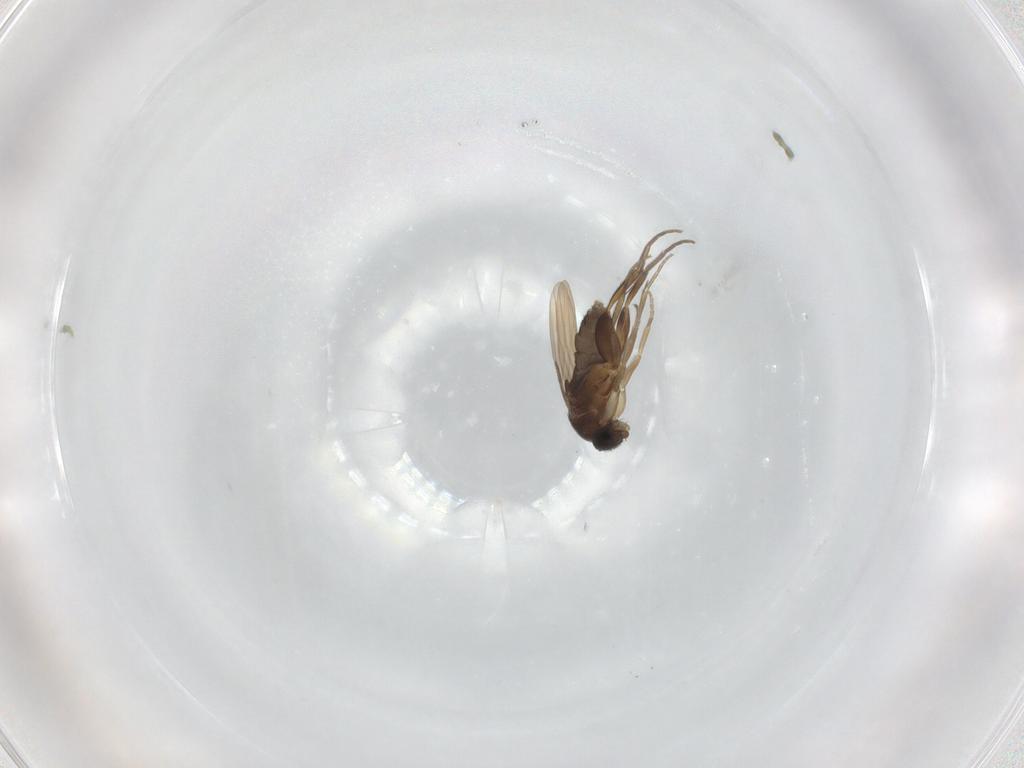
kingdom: Animalia
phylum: Arthropoda
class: Insecta
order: Diptera
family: Phoridae
